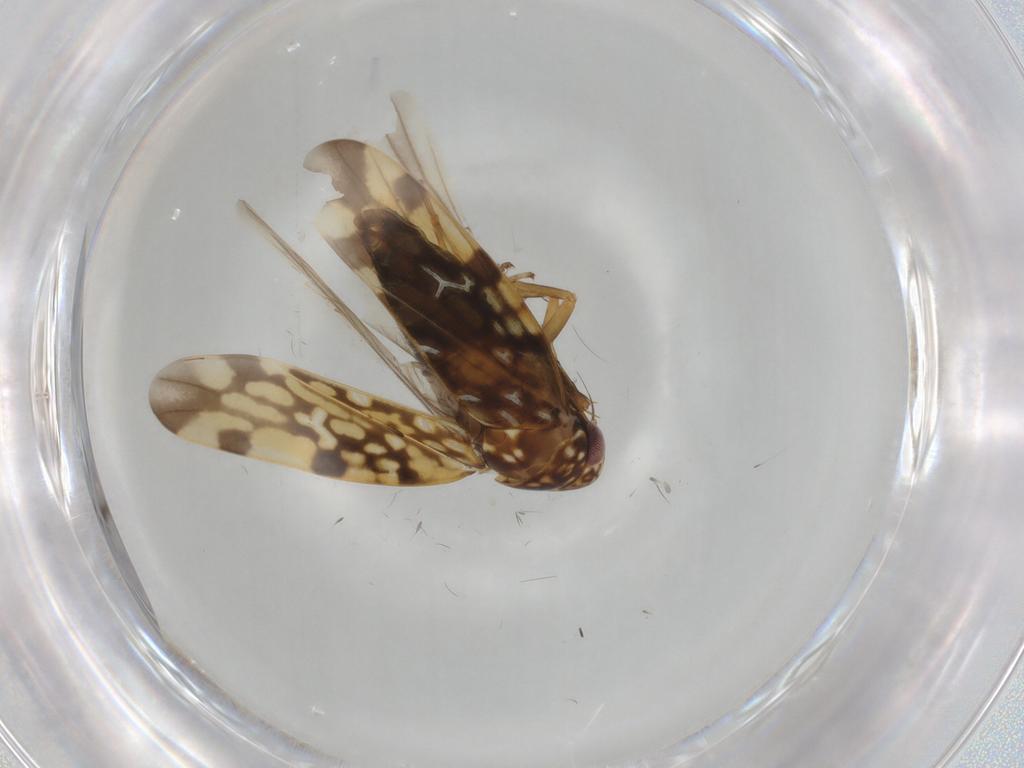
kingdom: Animalia
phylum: Arthropoda
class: Insecta
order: Hemiptera
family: Cicadellidae
